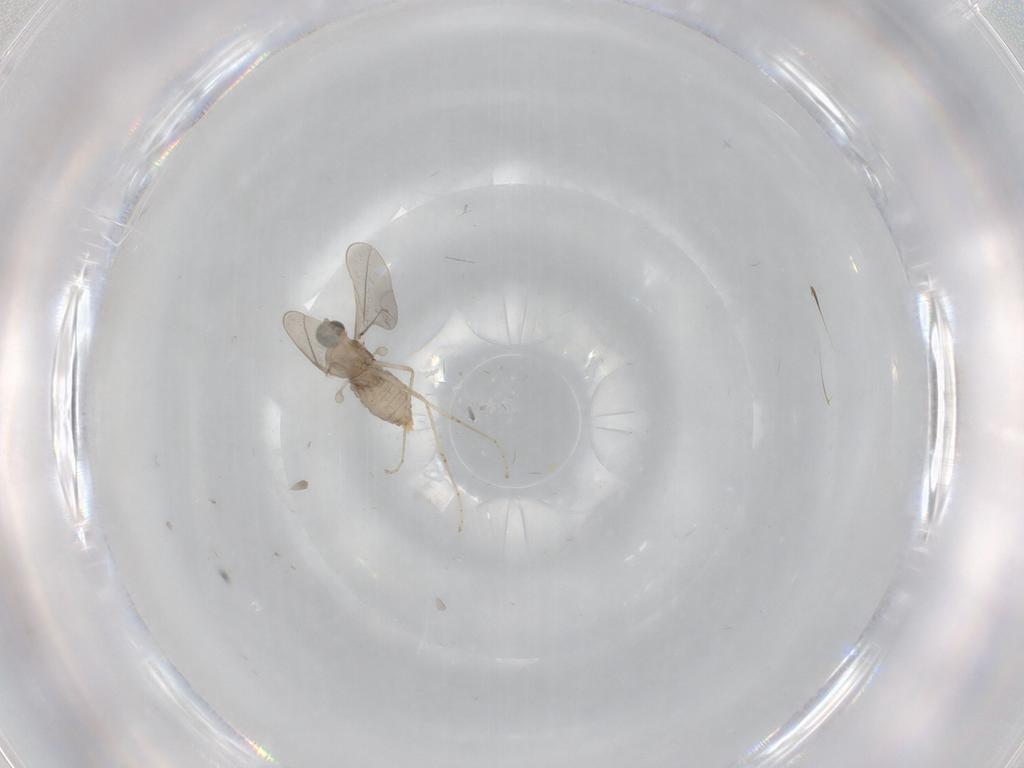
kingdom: Animalia
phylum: Arthropoda
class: Insecta
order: Diptera
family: Cecidomyiidae
